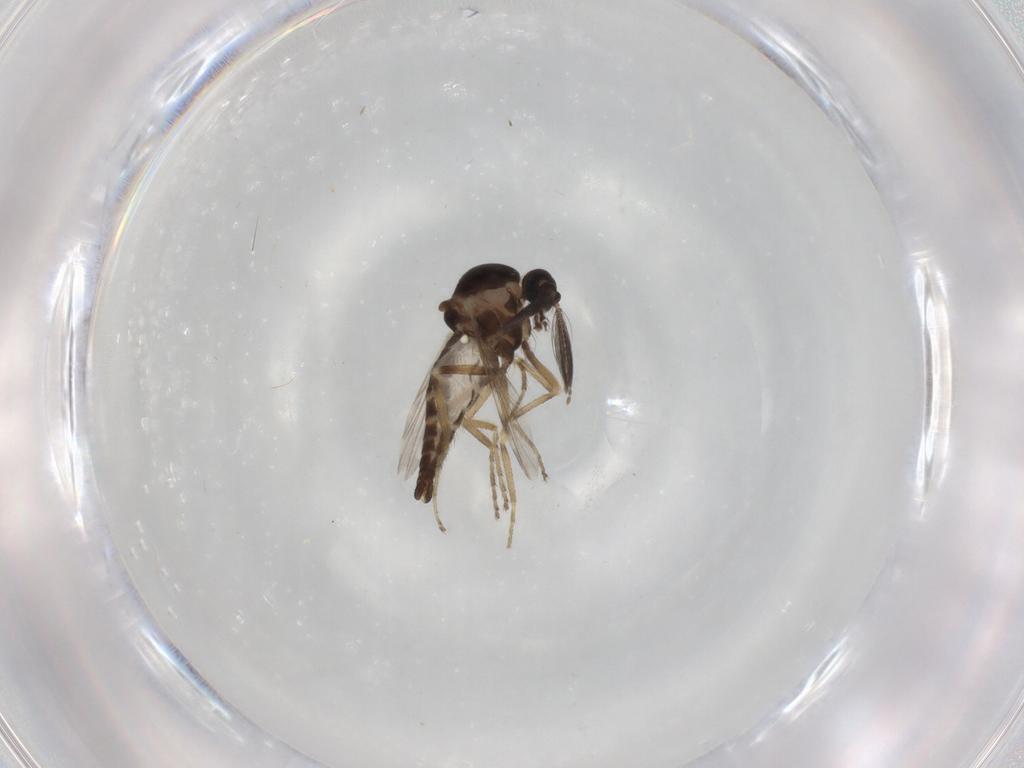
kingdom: Animalia
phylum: Arthropoda
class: Insecta
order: Diptera
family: Ceratopogonidae
